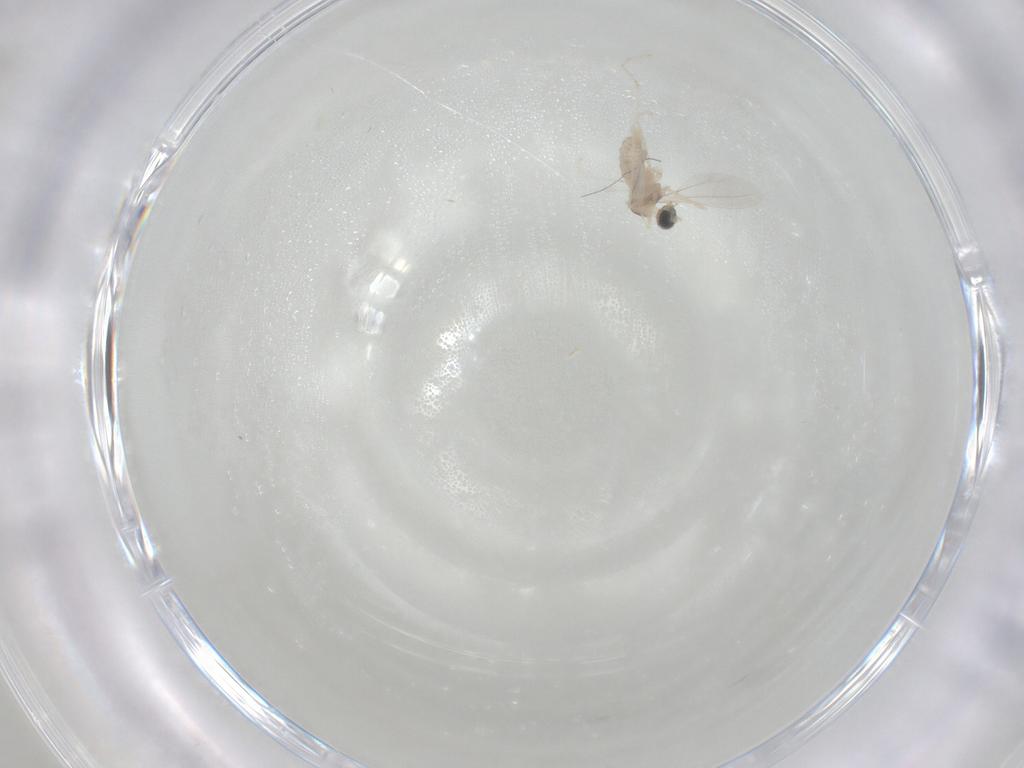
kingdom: Animalia
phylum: Arthropoda
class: Insecta
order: Diptera
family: Cecidomyiidae
